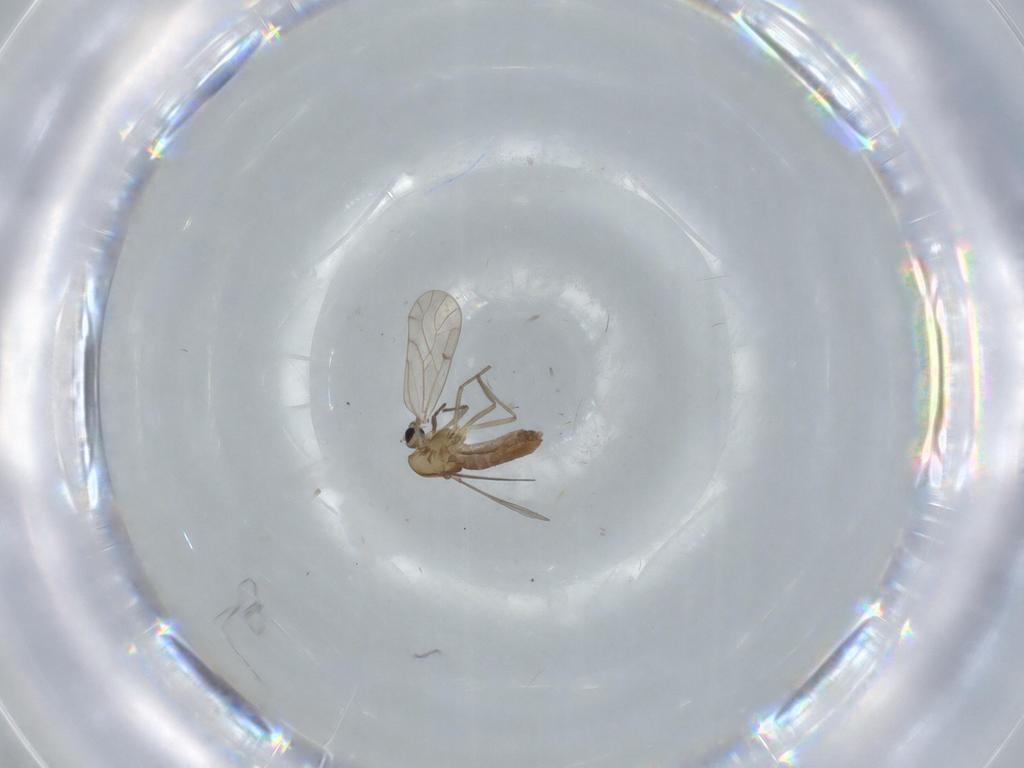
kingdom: Animalia
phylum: Arthropoda
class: Insecta
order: Diptera
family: Chironomidae
